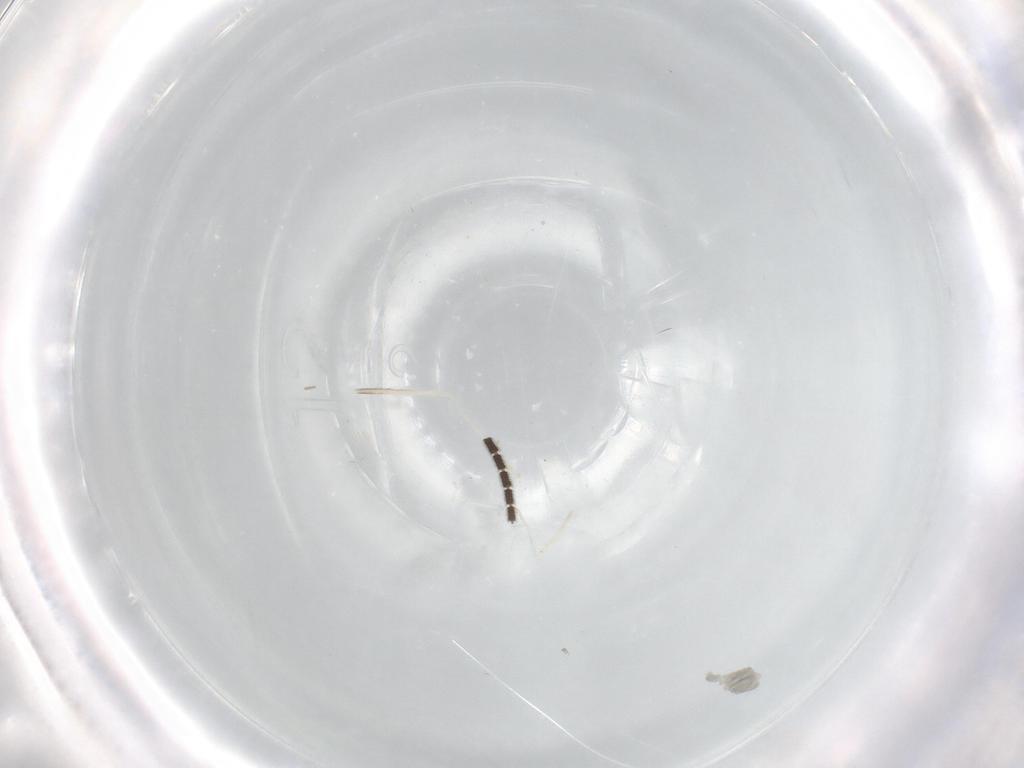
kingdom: Animalia
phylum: Arthropoda
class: Insecta
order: Diptera
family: Sciaridae
